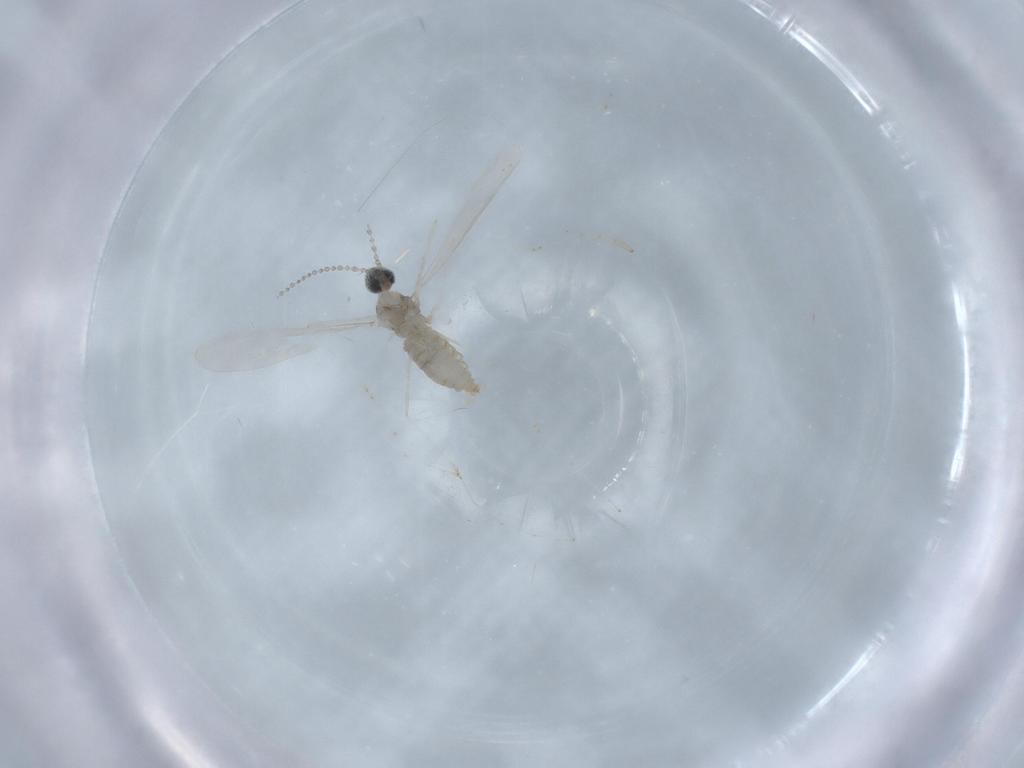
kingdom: Animalia
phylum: Arthropoda
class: Insecta
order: Diptera
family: Cecidomyiidae
